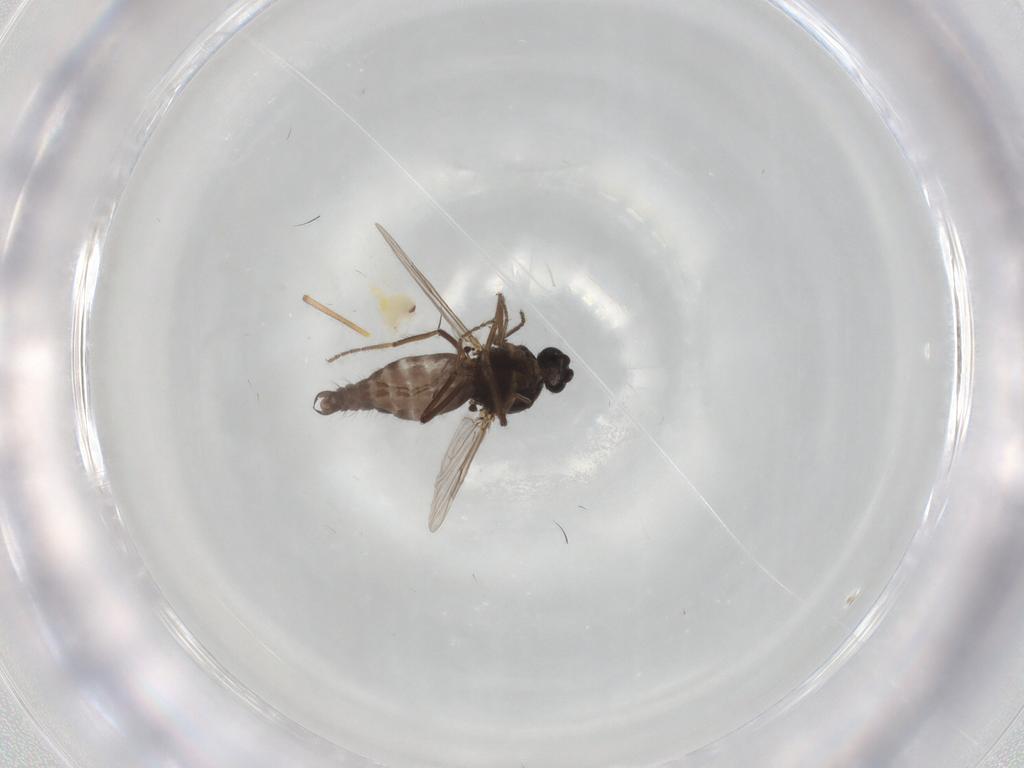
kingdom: Animalia
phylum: Arthropoda
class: Insecta
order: Diptera
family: Ceratopogonidae
